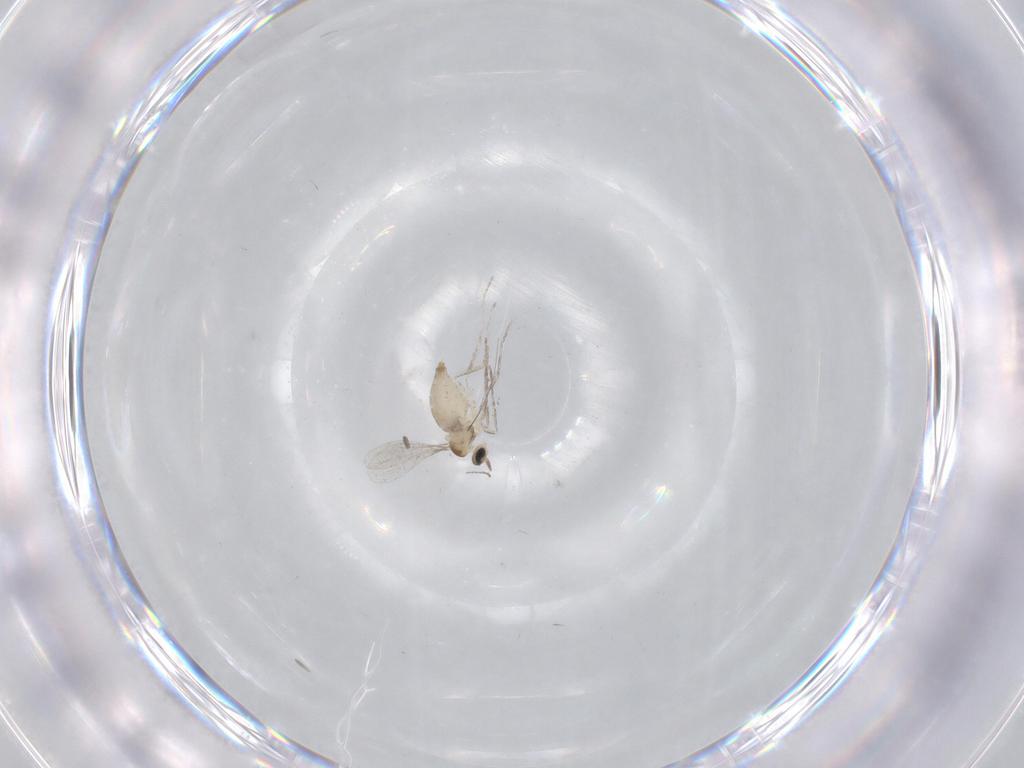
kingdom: Animalia
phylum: Arthropoda
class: Insecta
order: Diptera
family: Chironomidae
